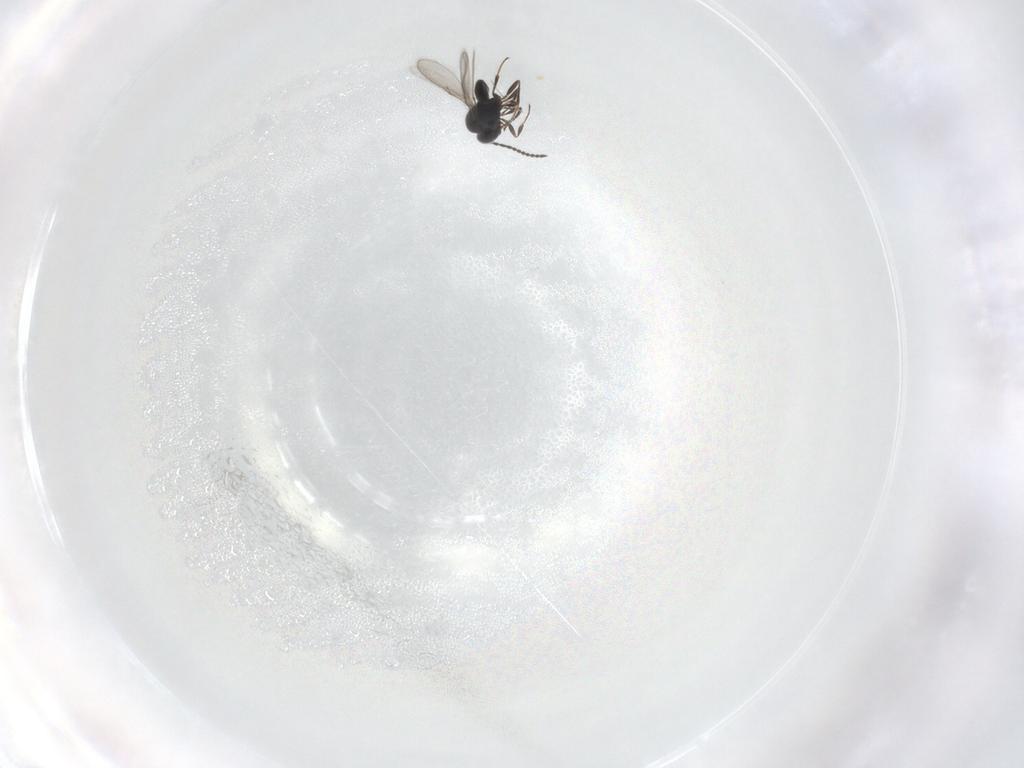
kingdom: Animalia
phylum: Arthropoda
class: Insecta
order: Hymenoptera
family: Scelionidae
